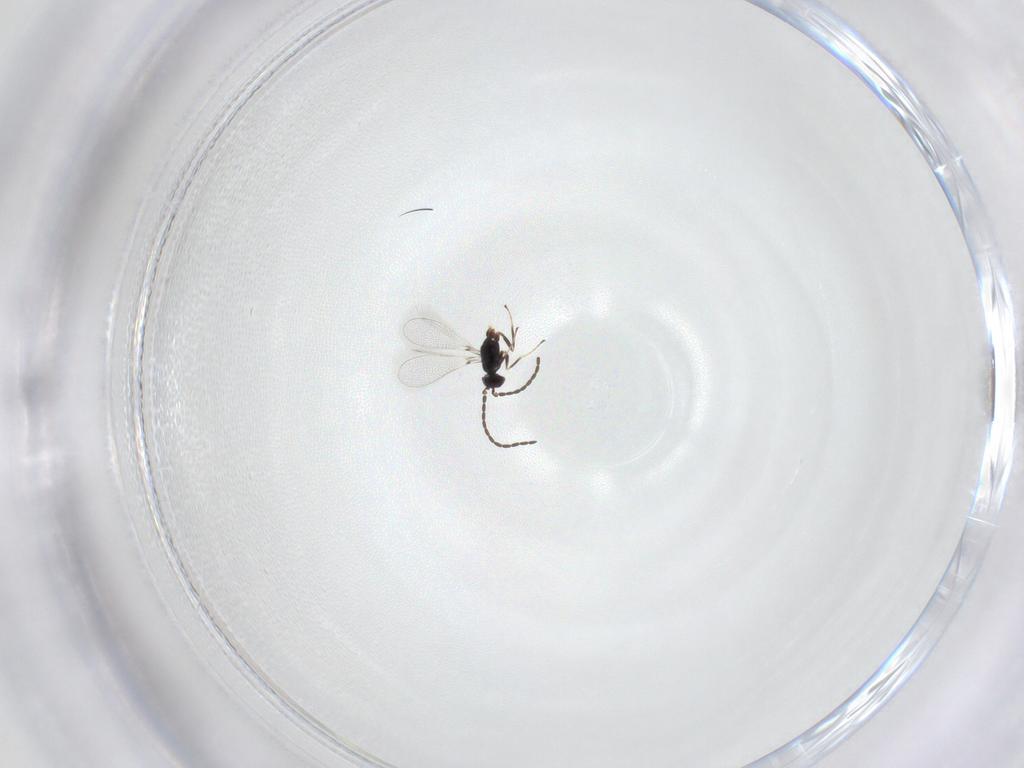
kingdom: Animalia
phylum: Arthropoda
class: Insecta
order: Hymenoptera
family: Mymaridae
